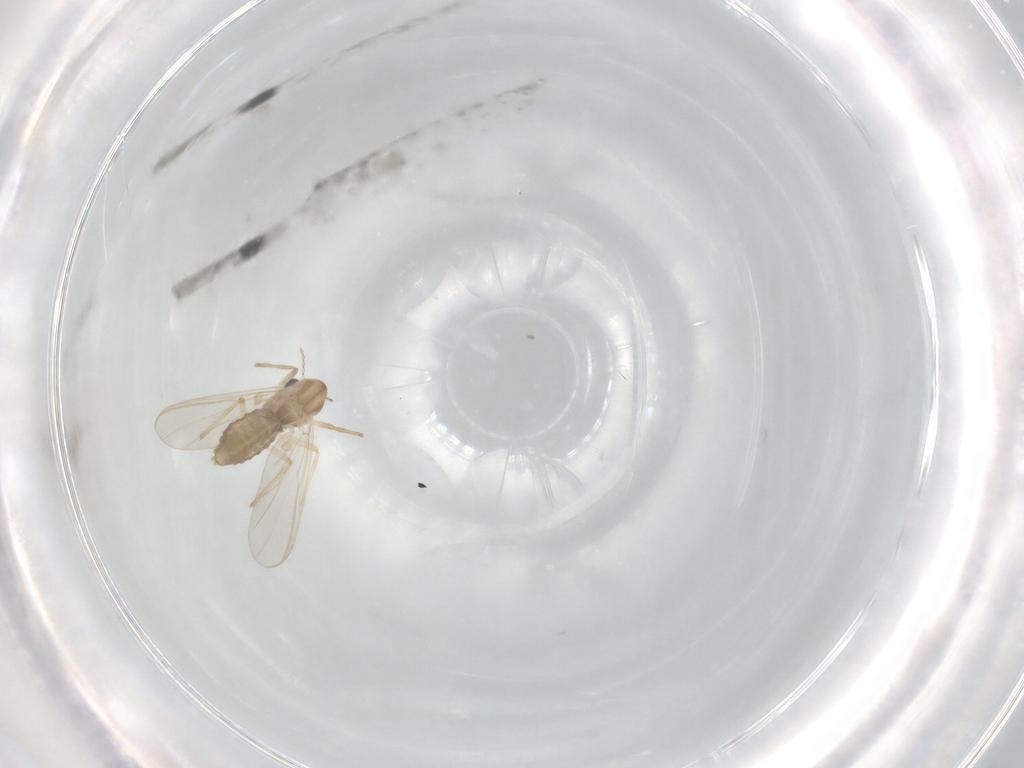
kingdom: Animalia
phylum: Arthropoda
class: Insecta
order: Diptera
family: Chironomidae
